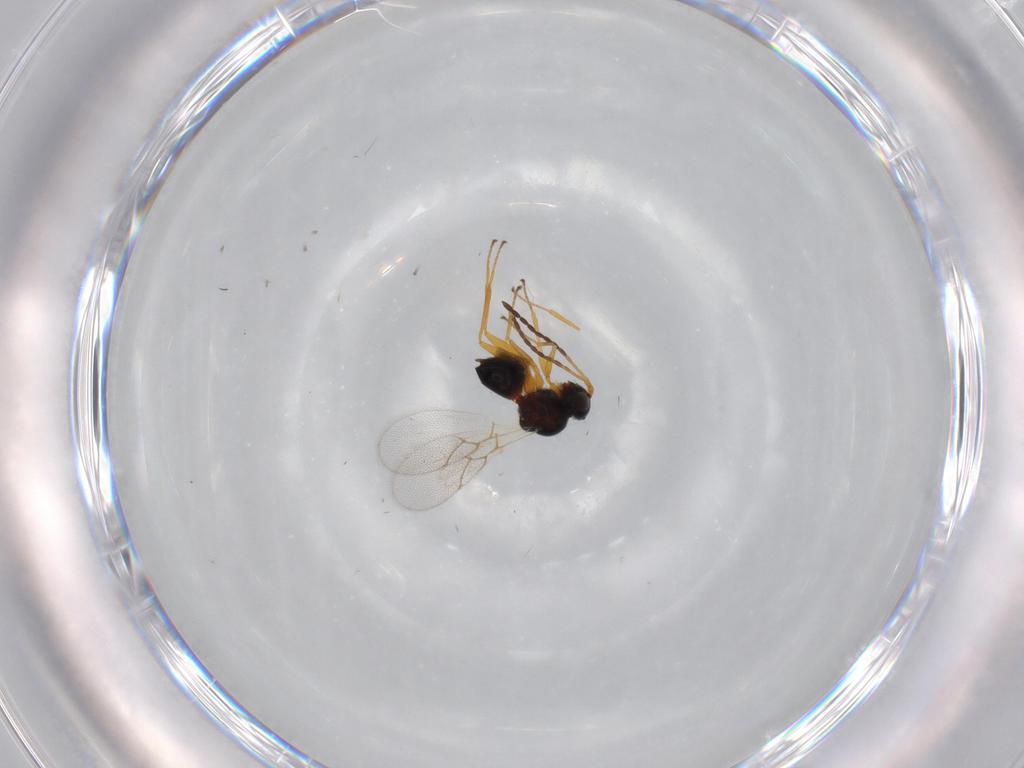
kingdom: Animalia
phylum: Arthropoda
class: Insecta
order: Hymenoptera
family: Figitidae
